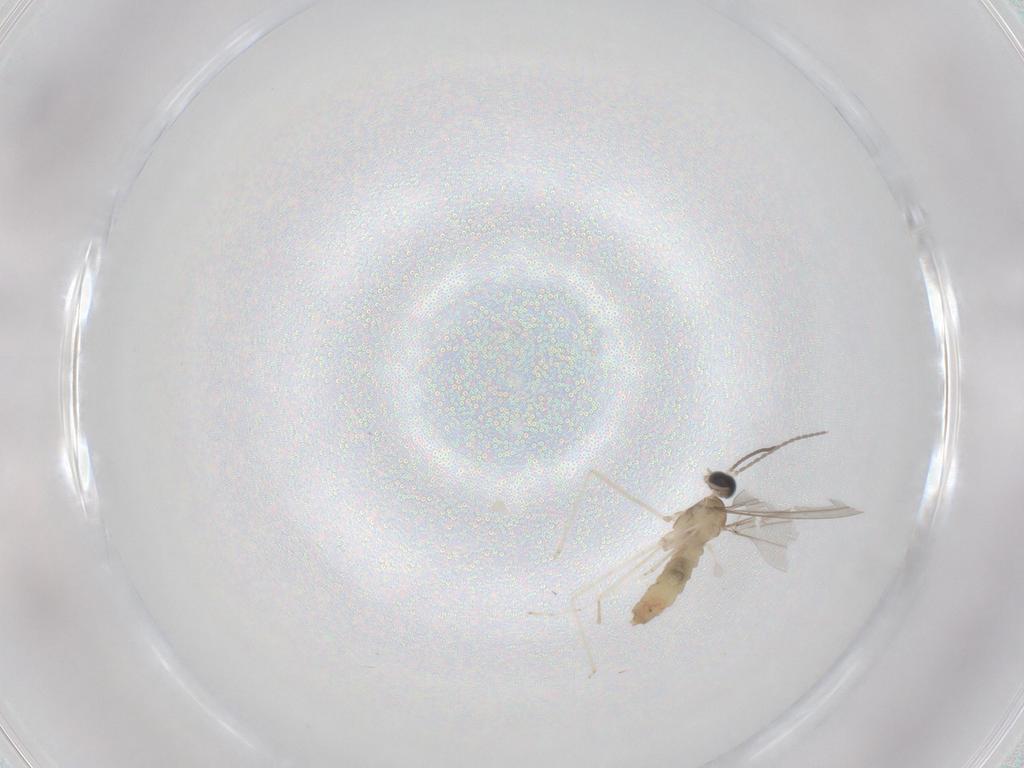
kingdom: Animalia
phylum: Arthropoda
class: Insecta
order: Diptera
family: Cecidomyiidae
